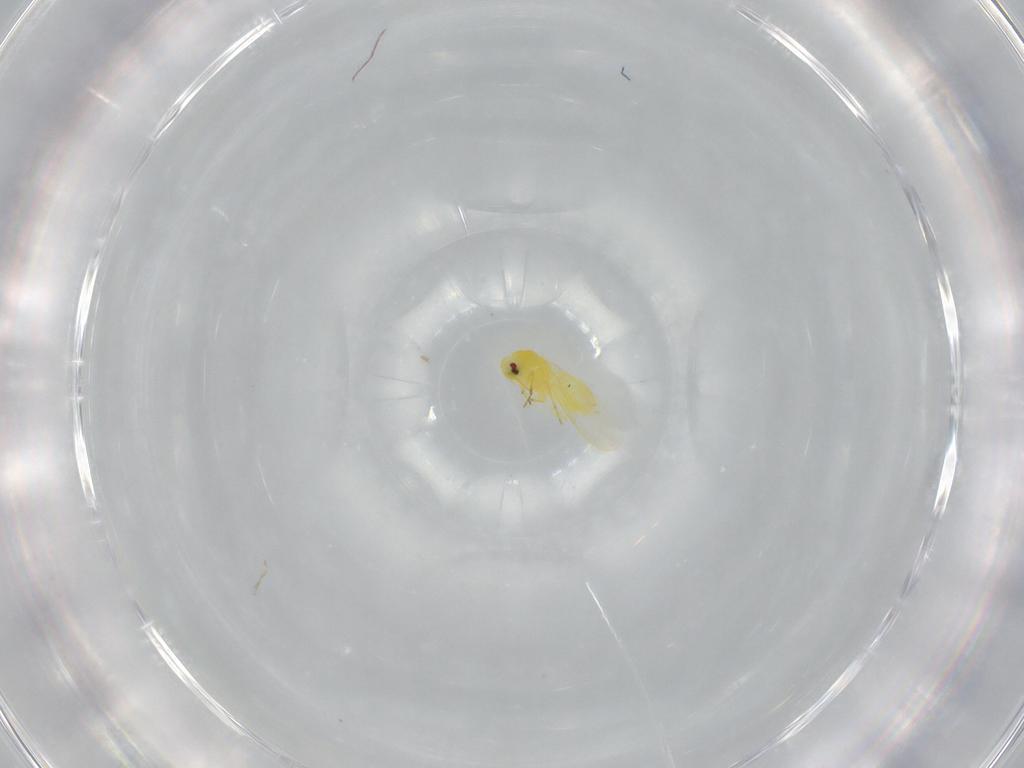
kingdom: Animalia
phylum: Arthropoda
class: Insecta
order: Hemiptera
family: Aleyrodidae
